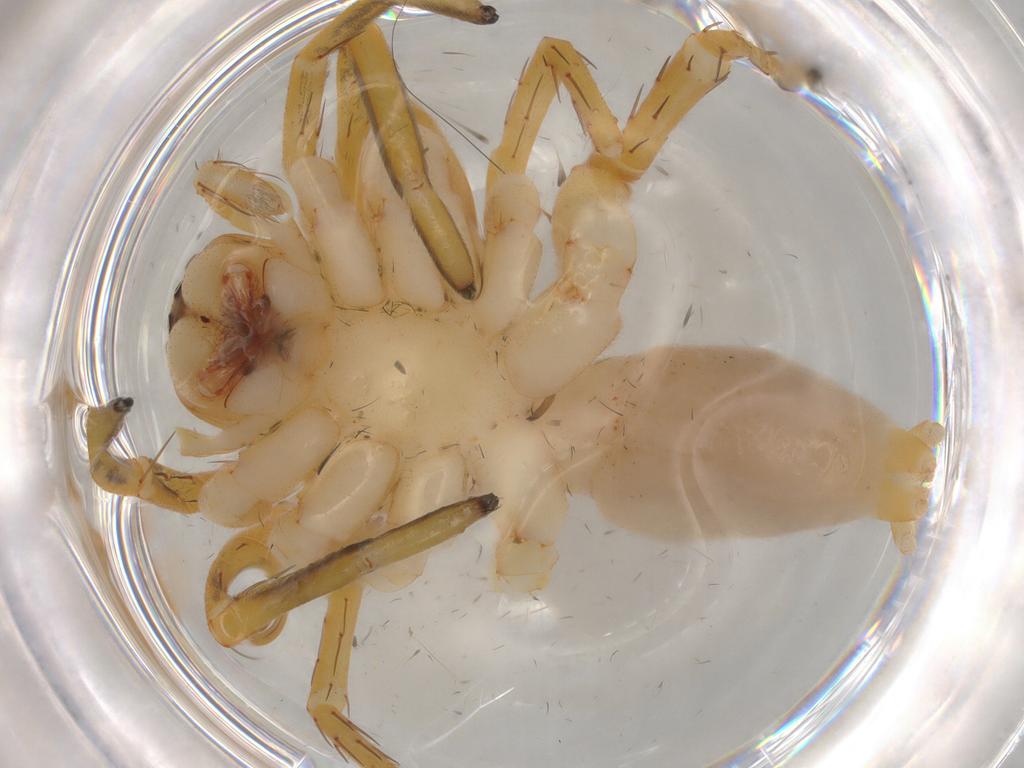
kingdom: Animalia
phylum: Arthropoda
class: Arachnida
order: Araneae
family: Clubionidae
